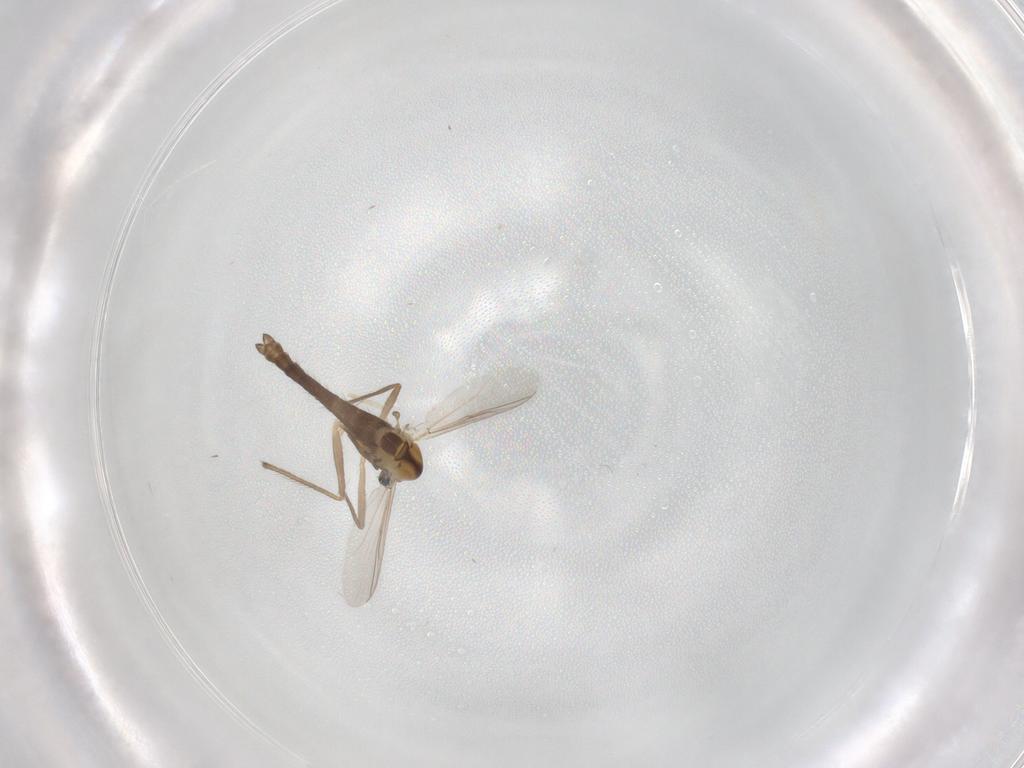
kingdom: Animalia
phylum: Arthropoda
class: Insecta
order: Diptera
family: Chironomidae
